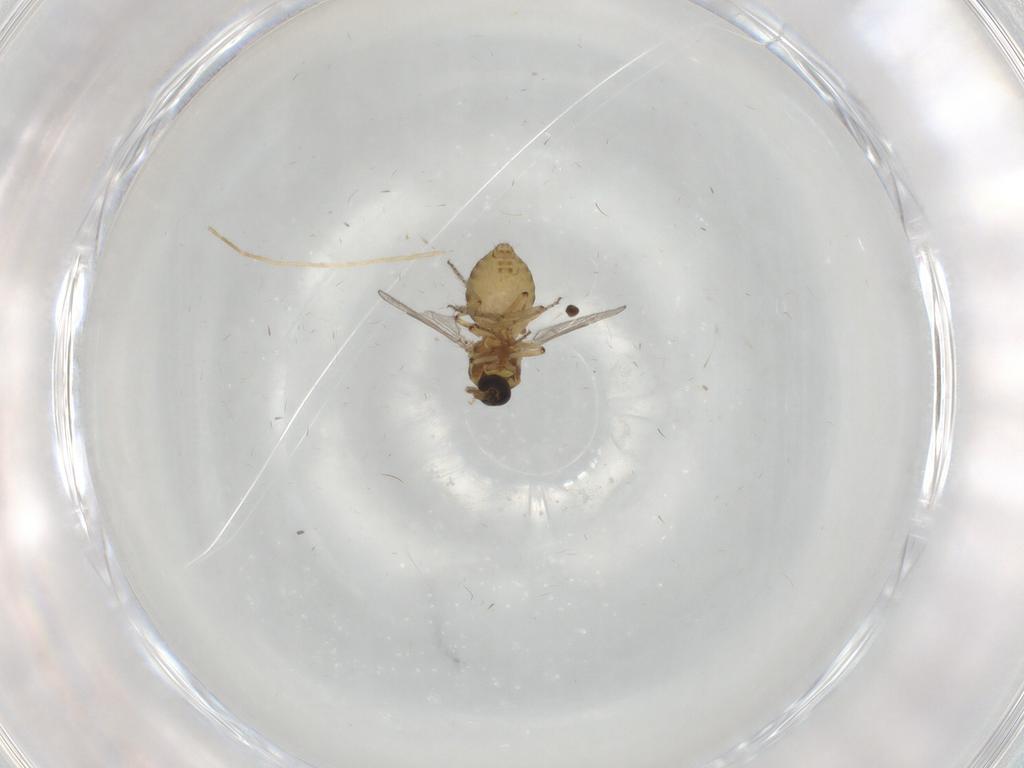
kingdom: Animalia
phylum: Arthropoda
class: Insecta
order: Diptera
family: Ceratopogonidae
